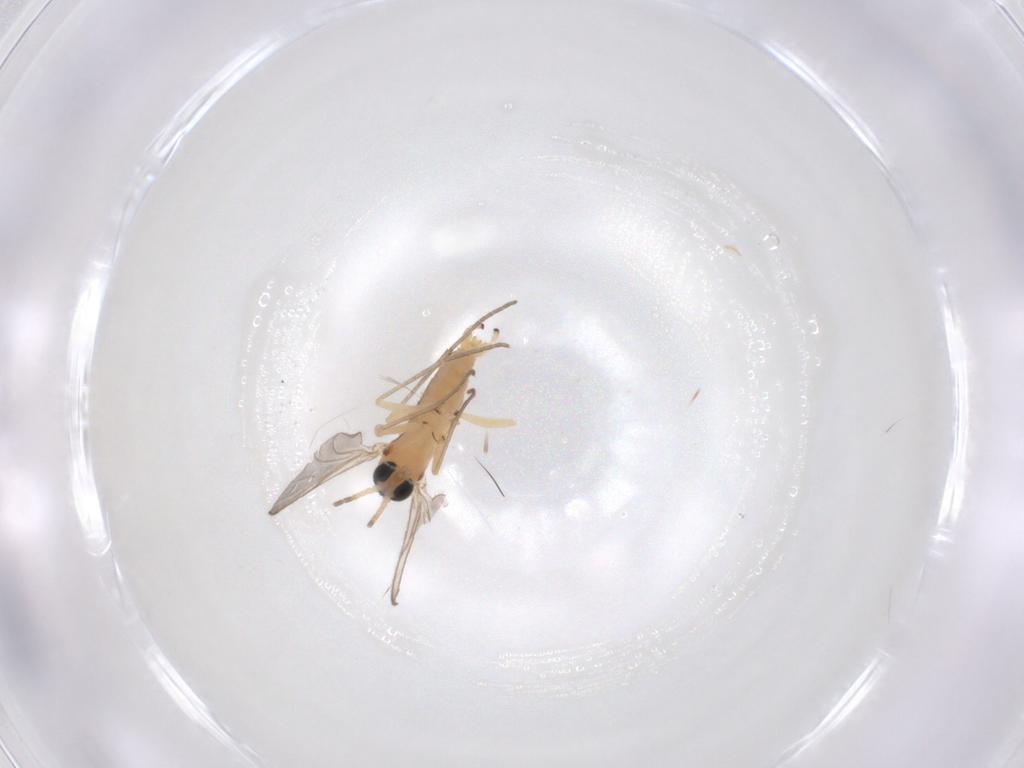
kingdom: Animalia
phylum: Arthropoda
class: Insecta
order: Diptera
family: Sciaridae
